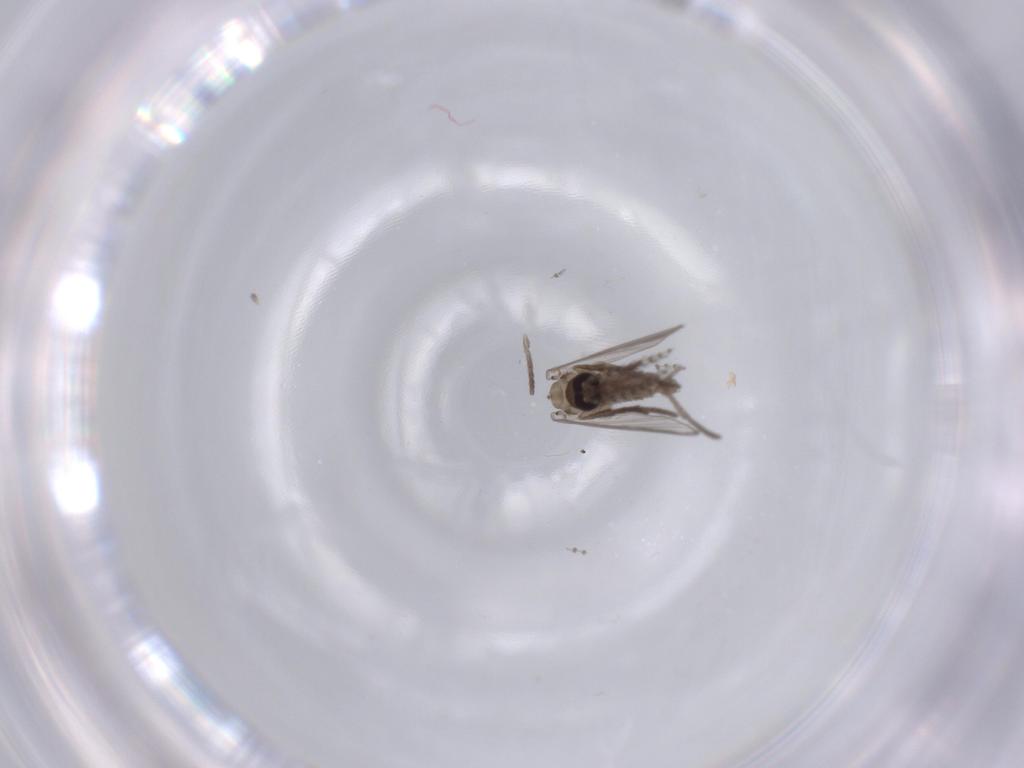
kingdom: Animalia
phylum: Arthropoda
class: Insecta
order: Diptera
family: Psychodidae
